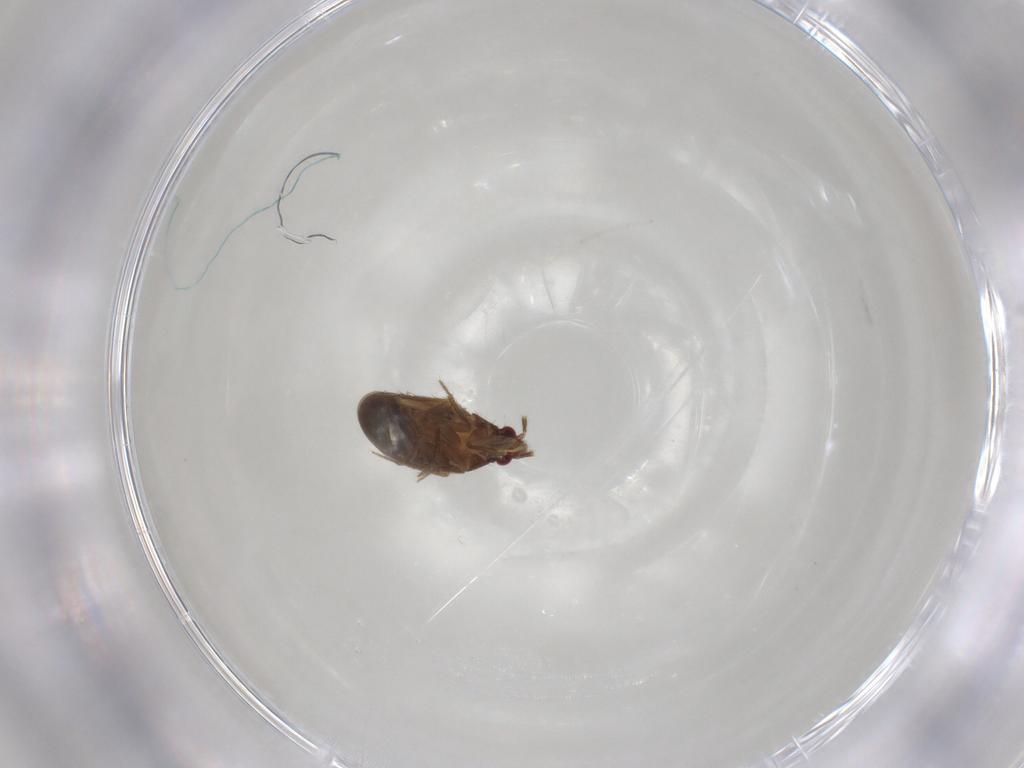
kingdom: Animalia
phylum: Arthropoda
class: Insecta
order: Hemiptera
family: Ceratocombidae
